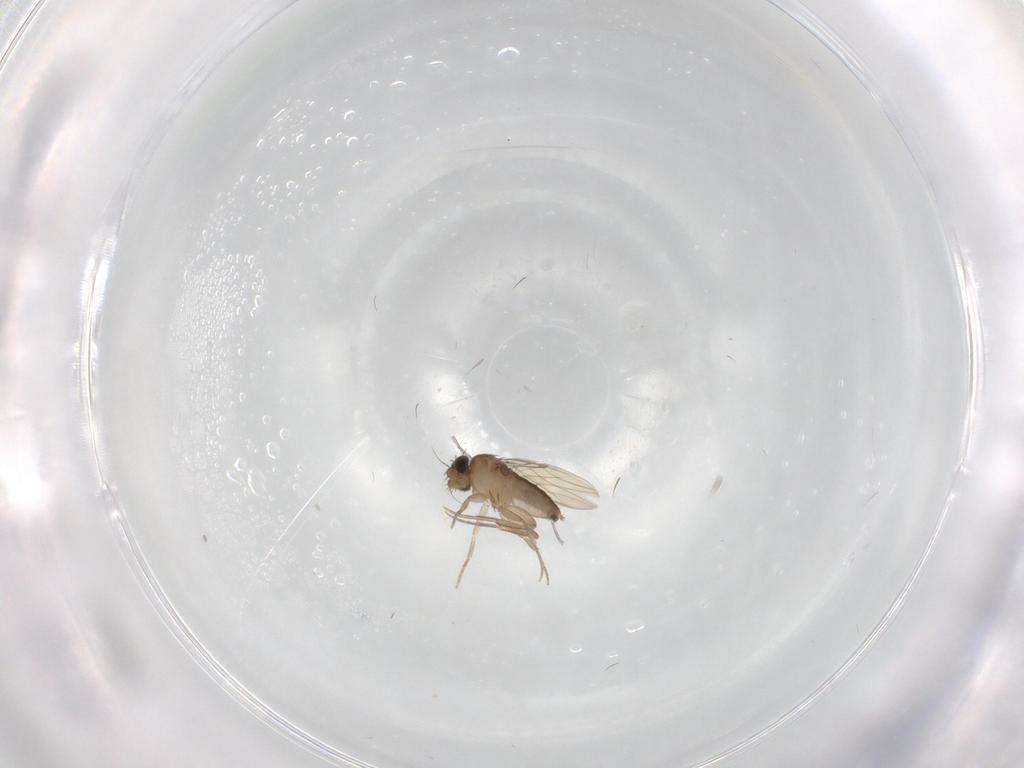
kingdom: Animalia
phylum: Arthropoda
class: Insecta
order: Diptera
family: Phoridae
